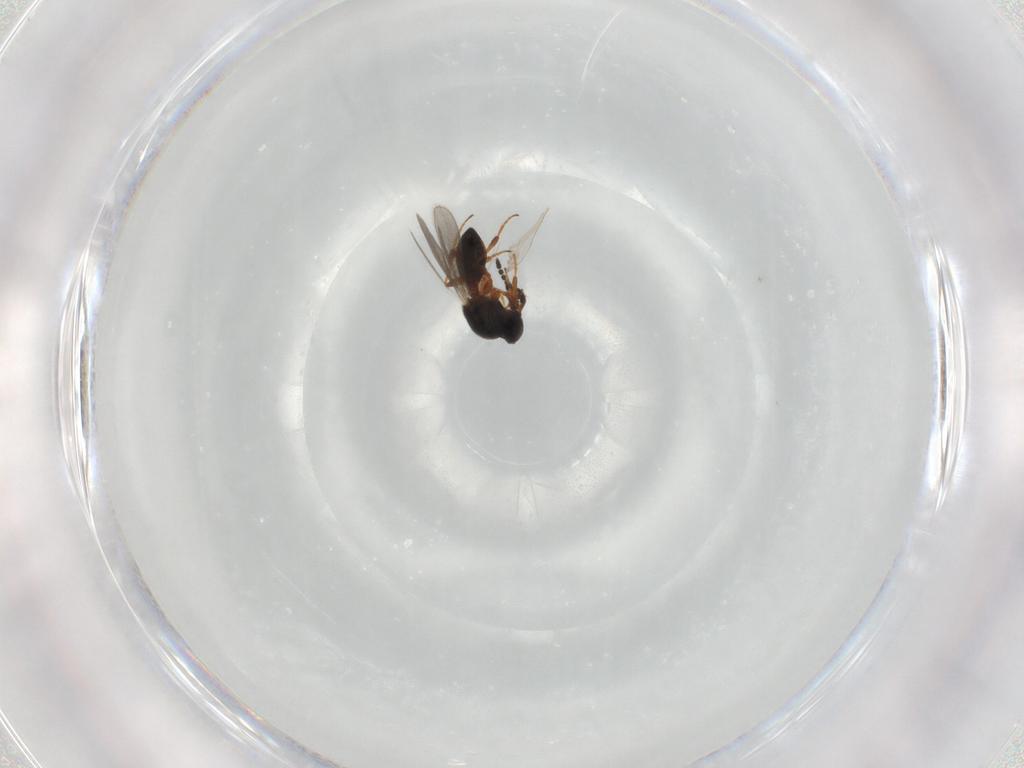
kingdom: Animalia
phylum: Arthropoda
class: Insecta
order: Hymenoptera
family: Platygastridae
